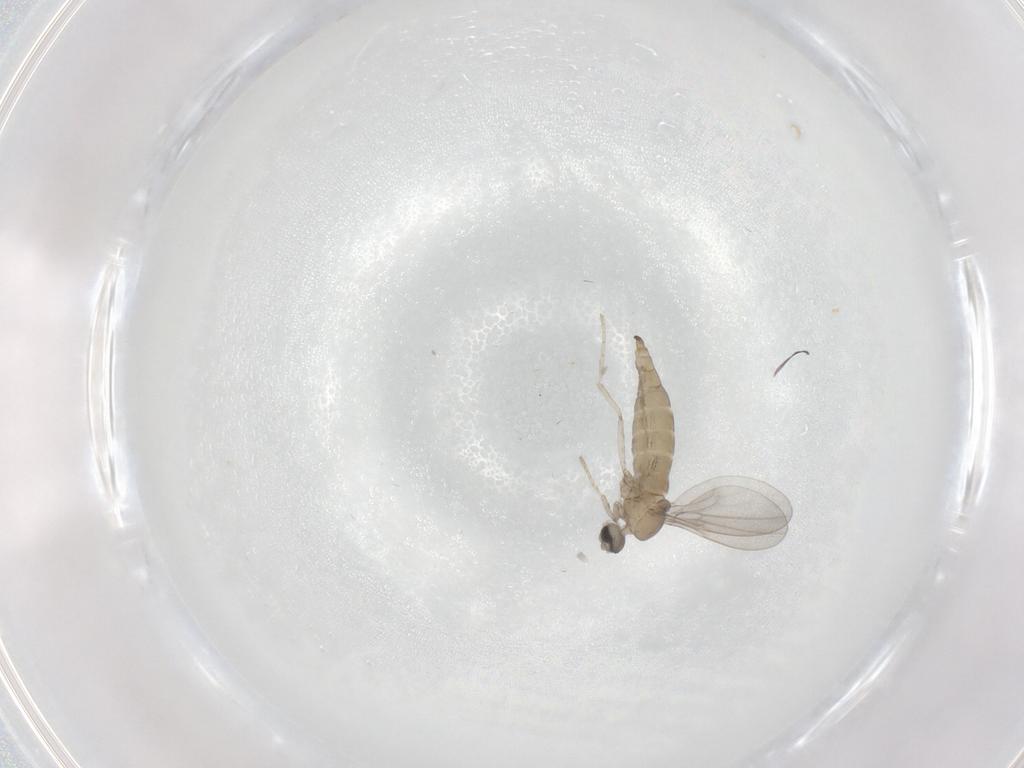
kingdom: Animalia
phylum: Arthropoda
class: Insecta
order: Diptera
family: Cecidomyiidae
